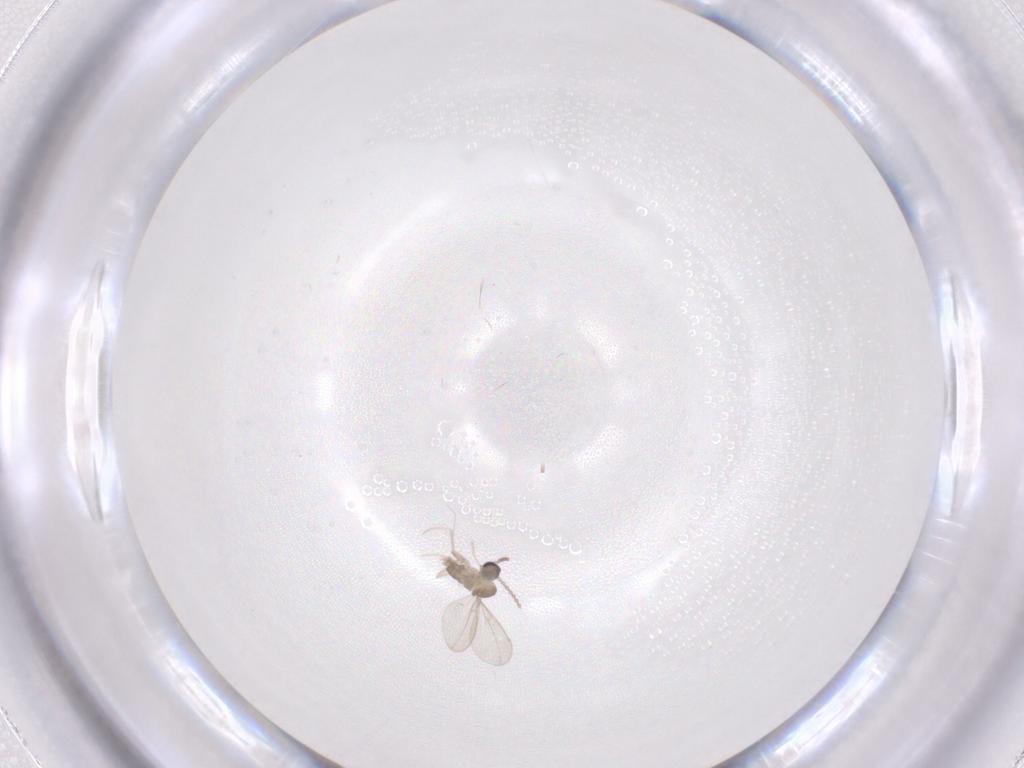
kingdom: Animalia
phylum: Arthropoda
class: Insecta
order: Diptera
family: Cecidomyiidae
